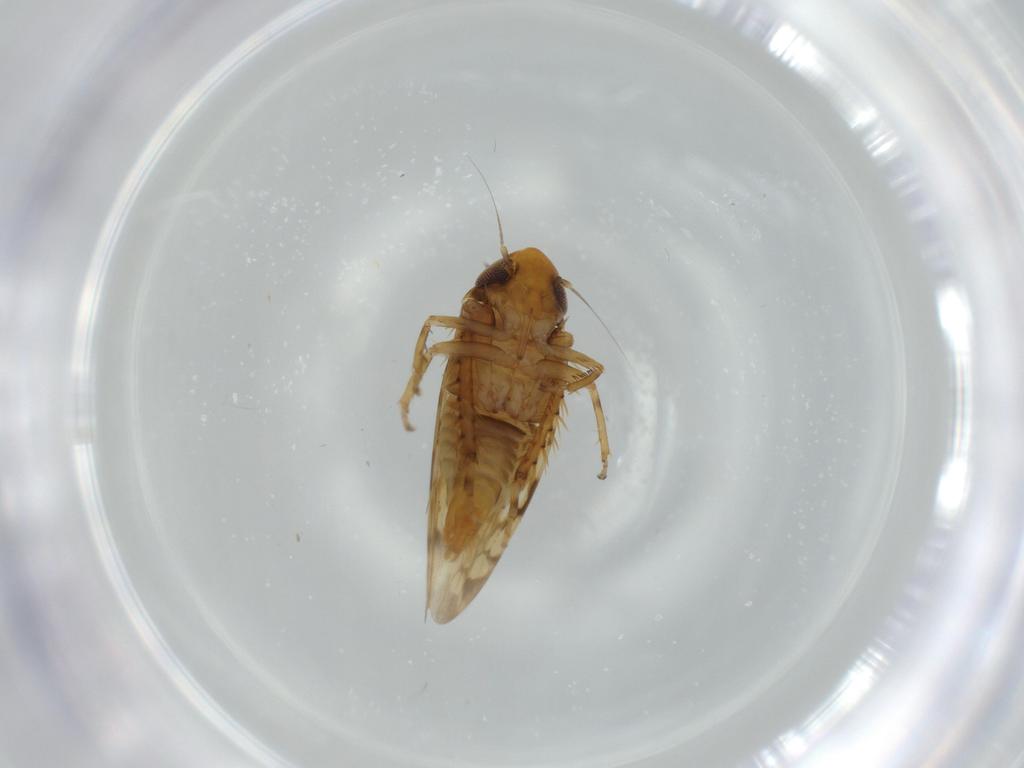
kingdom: Animalia
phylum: Arthropoda
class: Insecta
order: Hemiptera
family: Cicadellidae
